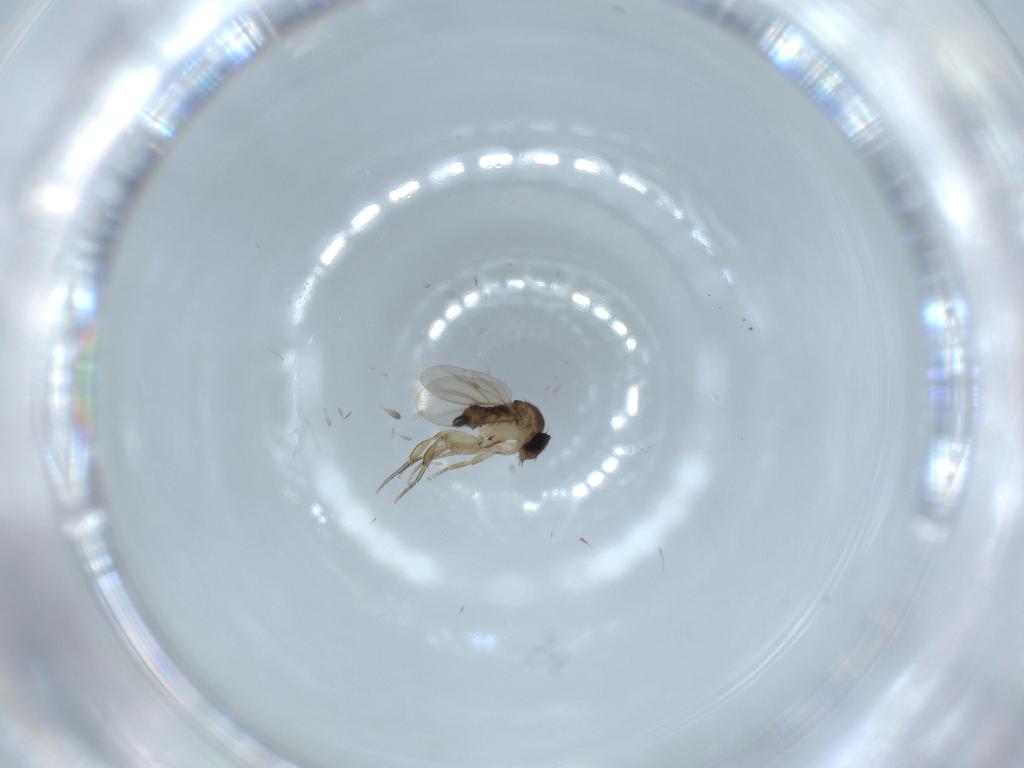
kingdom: Animalia
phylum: Arthropoda
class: Insecta
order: Diptera
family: Phoridae
